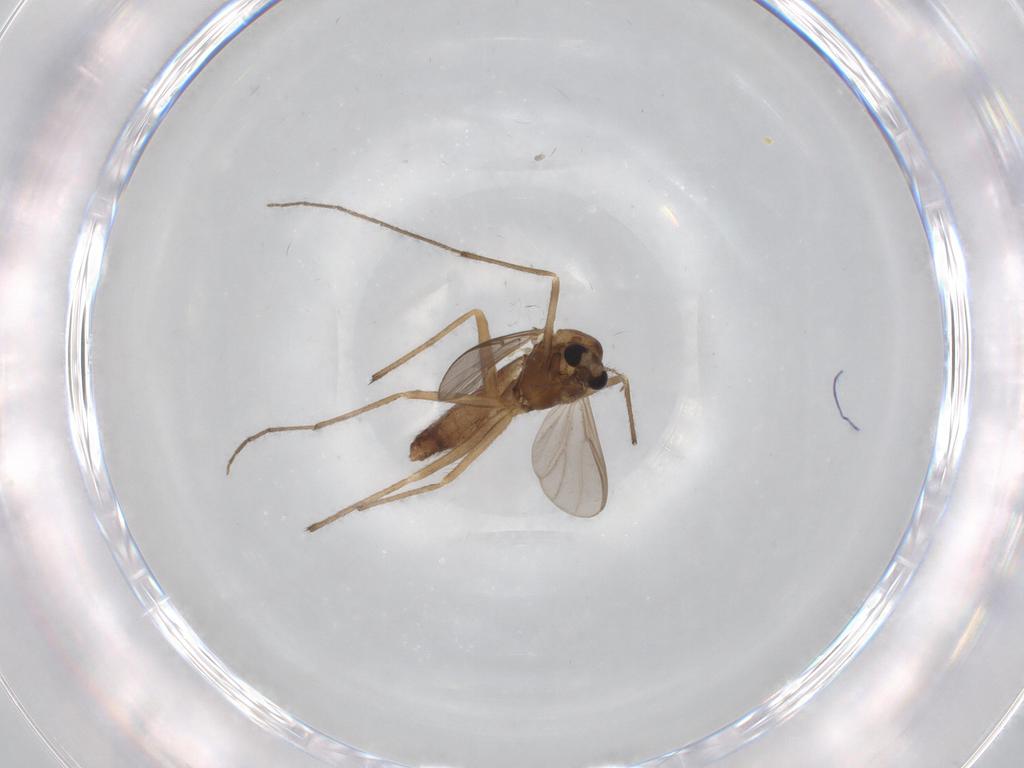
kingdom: Animalia
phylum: Arthropoda
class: Insecta
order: Diptera
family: Chironomidae
